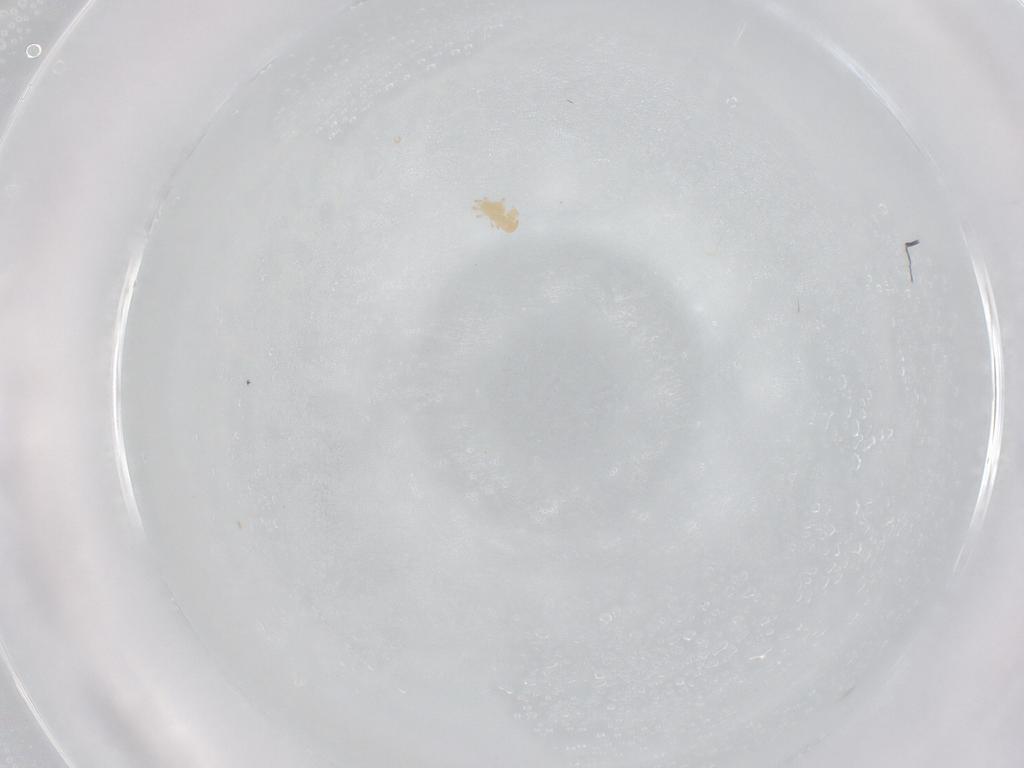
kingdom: Animalia
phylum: Arthropoda
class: Arachnida
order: Mesostigmata
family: Blattisociidae
